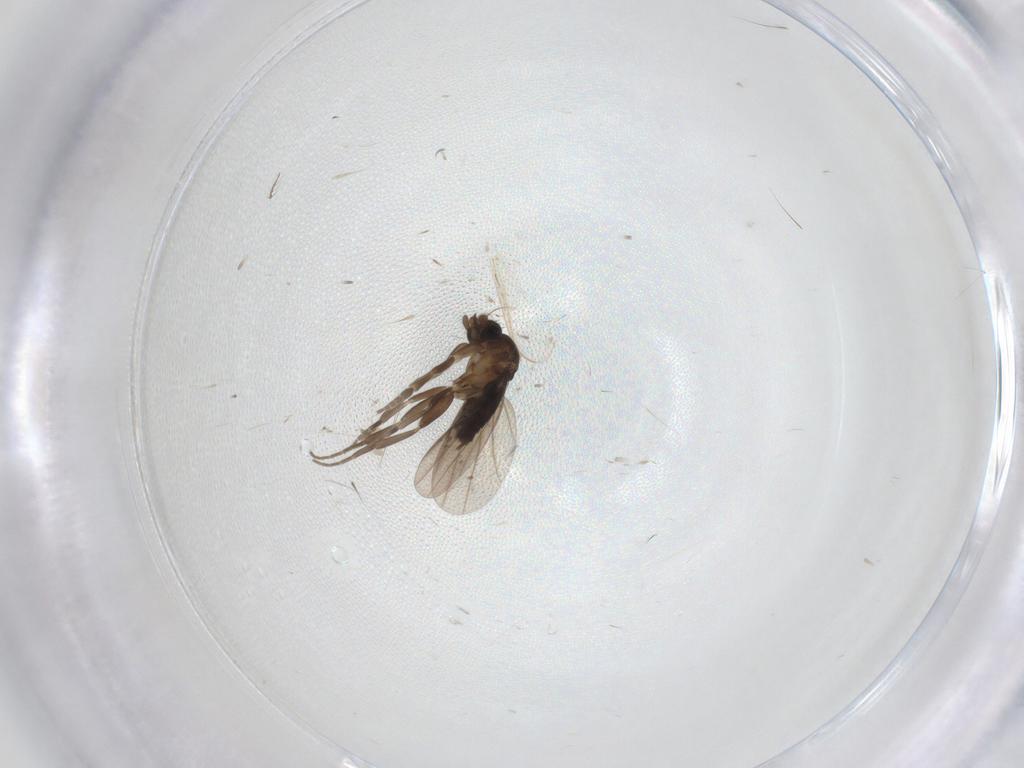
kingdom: Animalia
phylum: Arthropoda
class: Insecta
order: Diptera
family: Phoridae
